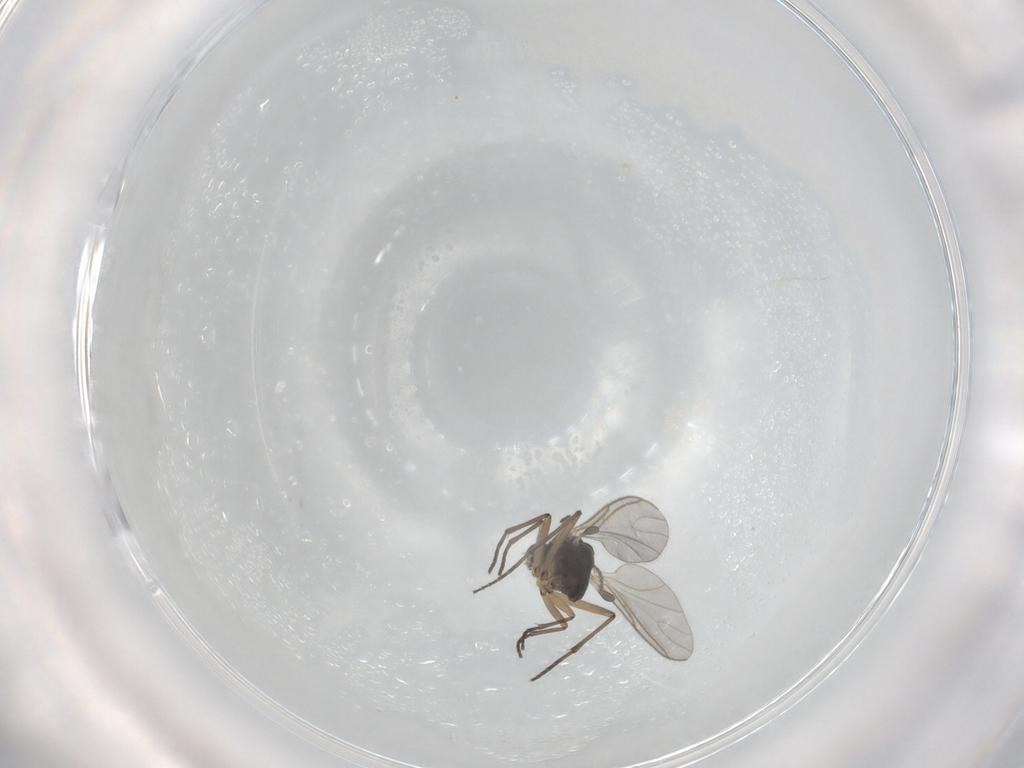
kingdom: Animalia
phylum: Arthropoda
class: Insecta
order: Diptera
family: Sciaridae
